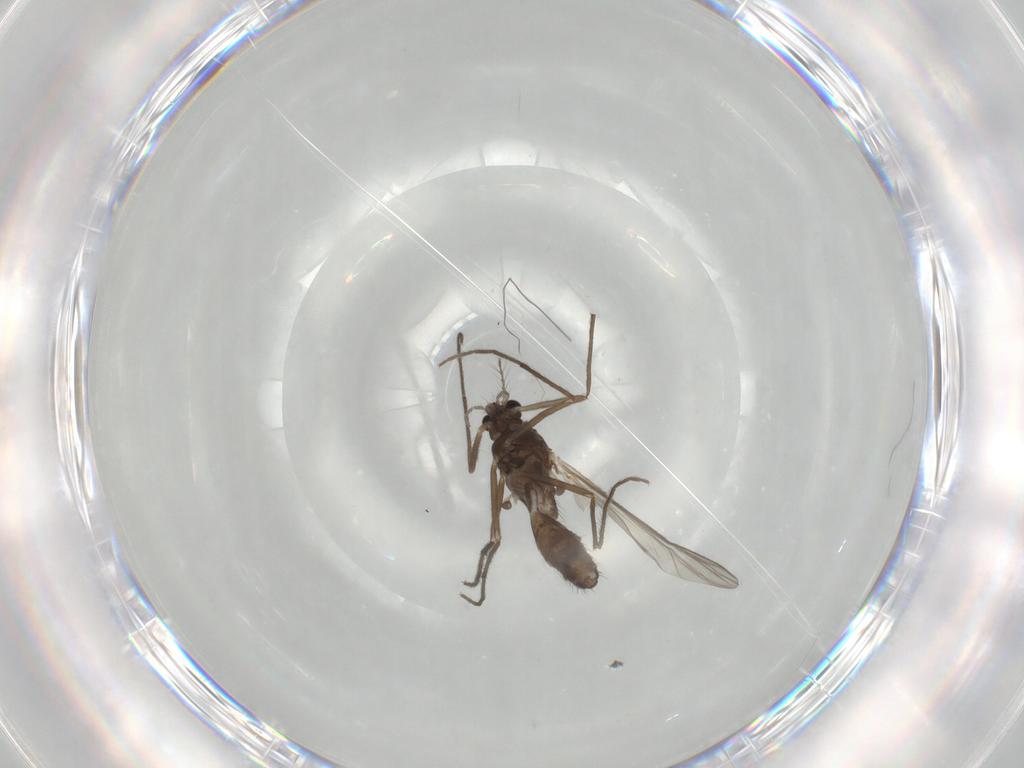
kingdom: Animalia
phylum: Arthropoda
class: Insecta
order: Diptera
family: Chironomidae
